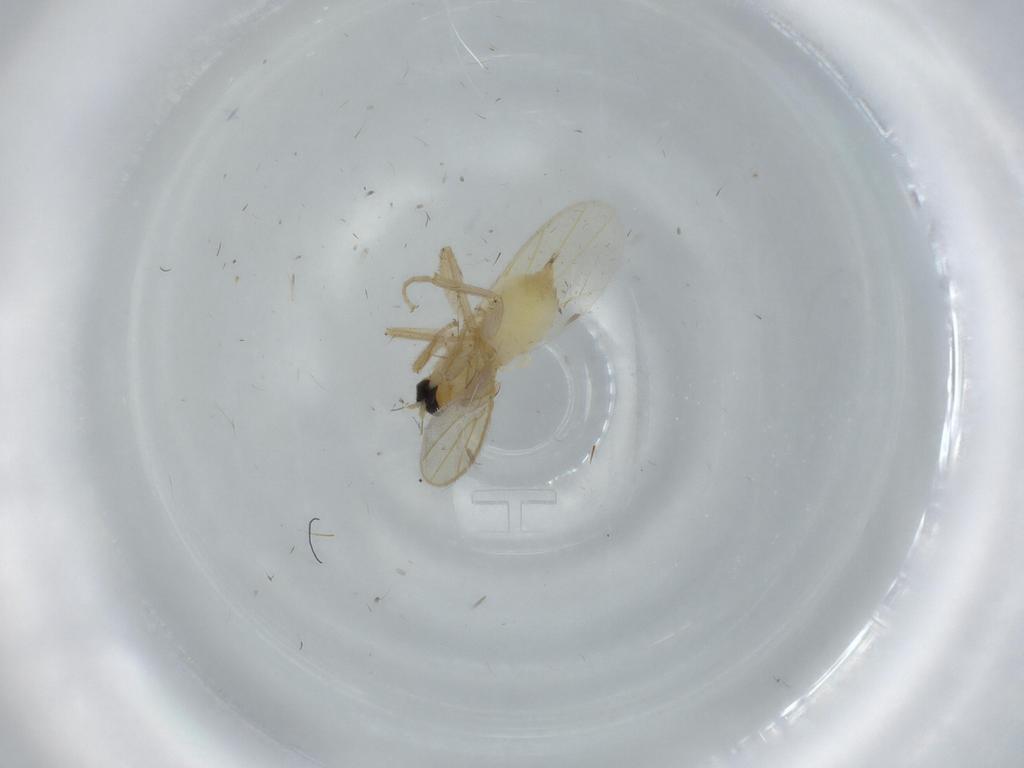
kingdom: Animalia
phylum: Arthropoda
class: Insecta
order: Diptera
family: Hybotidae
